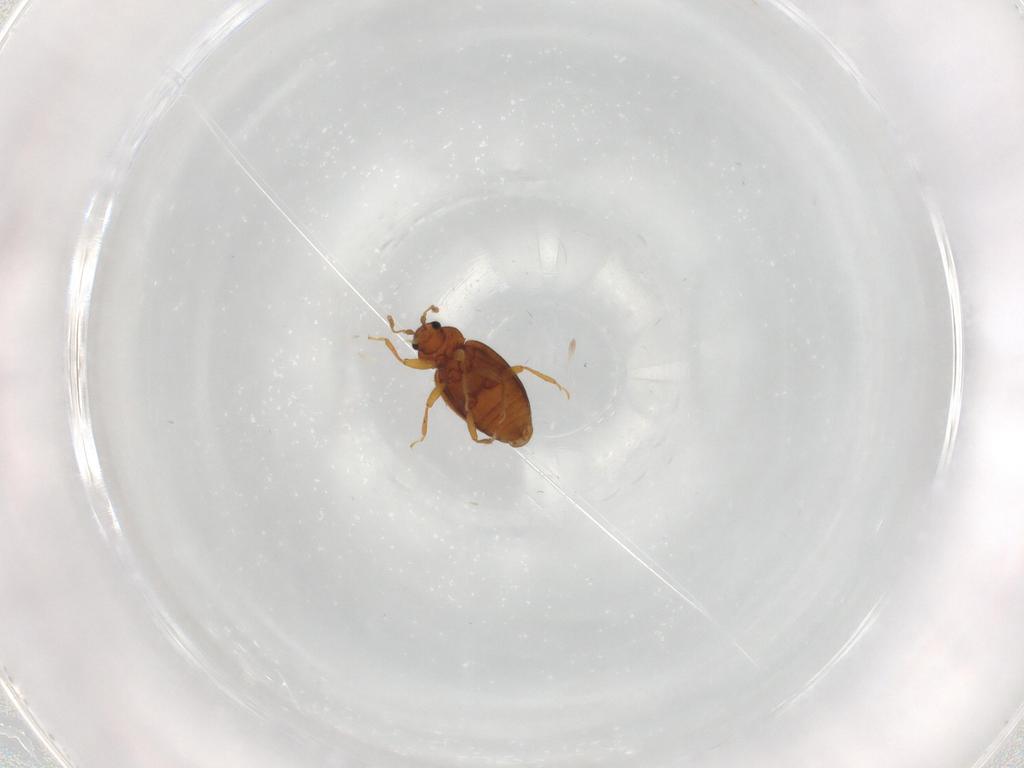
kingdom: Animalia
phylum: Arthropoda
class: Insecta
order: Coleoptera
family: Latridiidae
